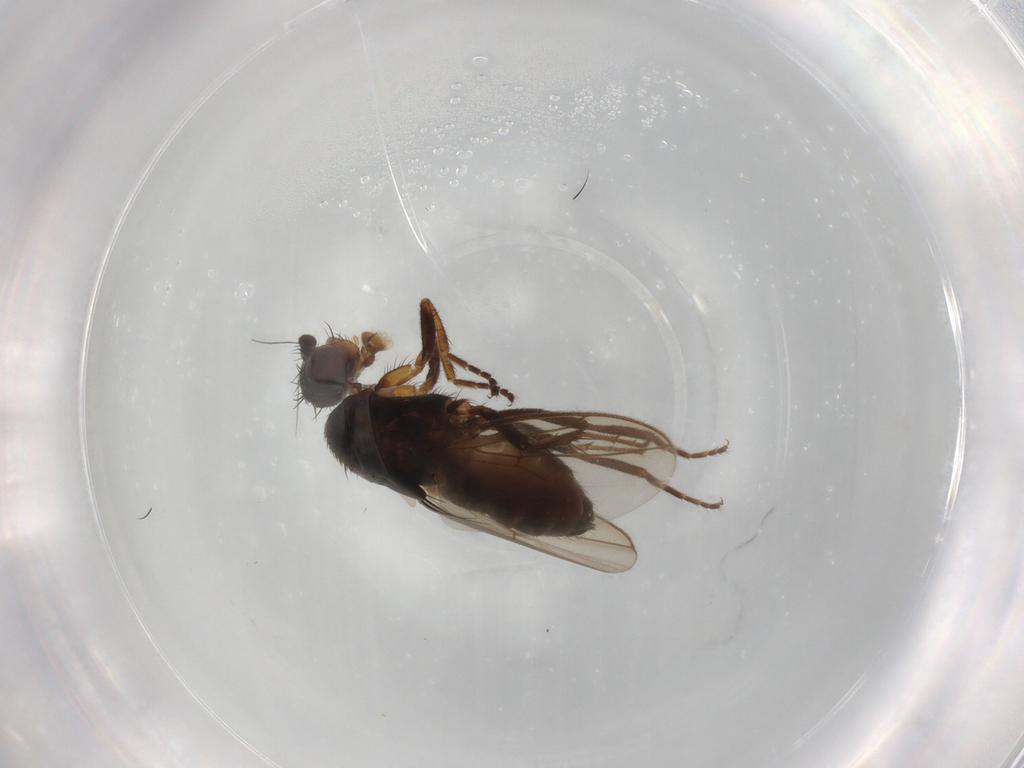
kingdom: Animalia
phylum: Arthropoda
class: Insecta
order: Diptera
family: Sphaeroceridae
